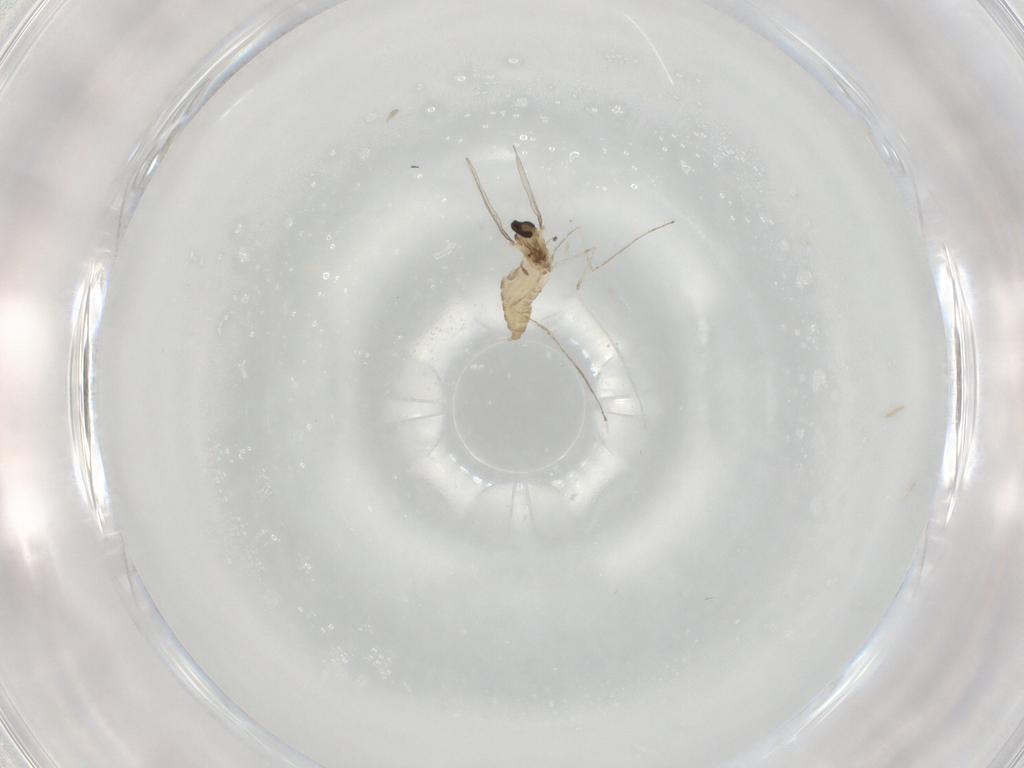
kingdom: Animalia
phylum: Arthropoda
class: Insecta
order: Diptera
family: Cecidomyiidae
